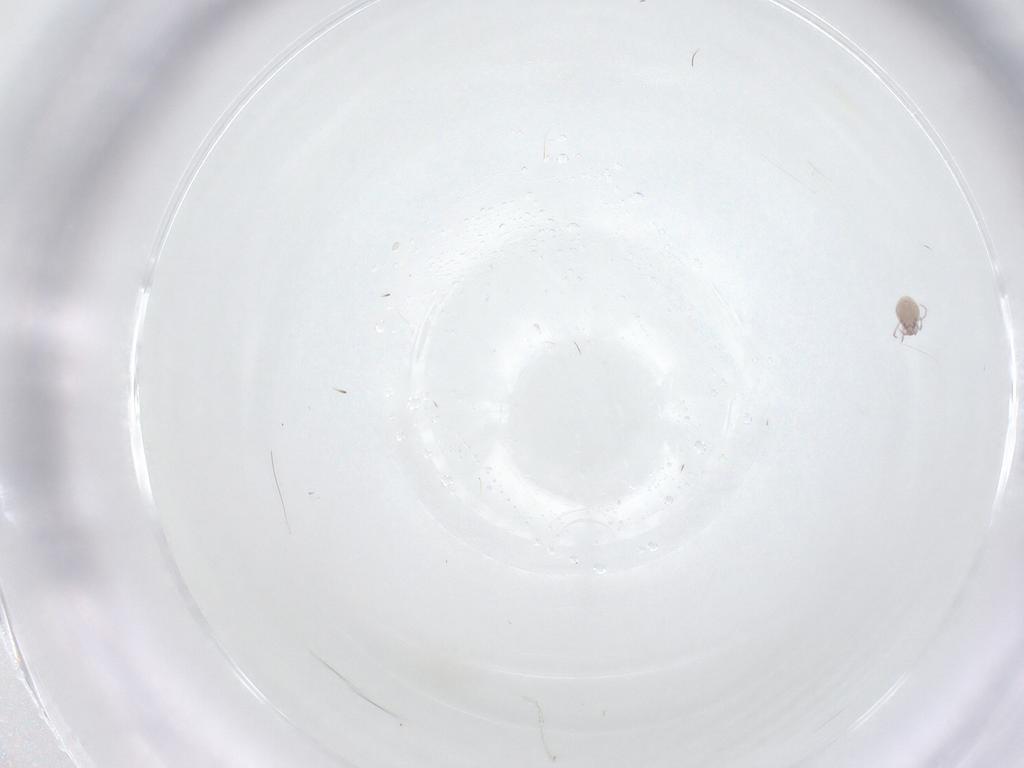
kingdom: Animalia
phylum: Arthropoda
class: Arachnida
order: Trombidiformes
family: Pionidae
